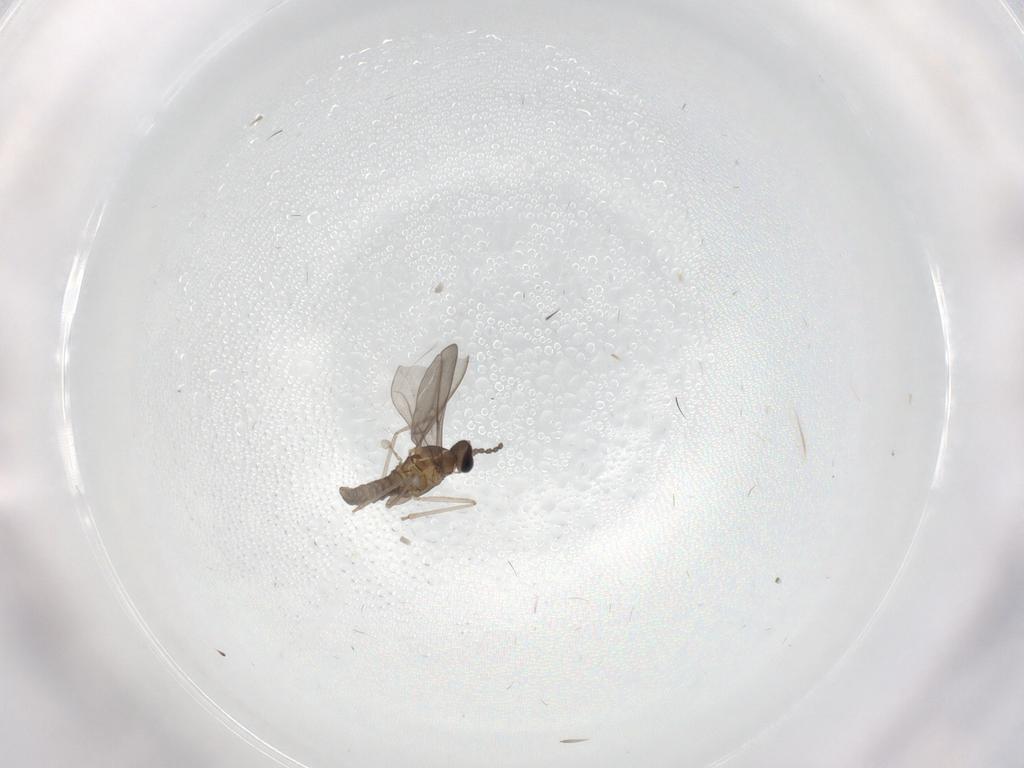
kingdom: Animalia
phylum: Arthropoda
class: Insecta
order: Diptera
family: Cecidomyiidae
